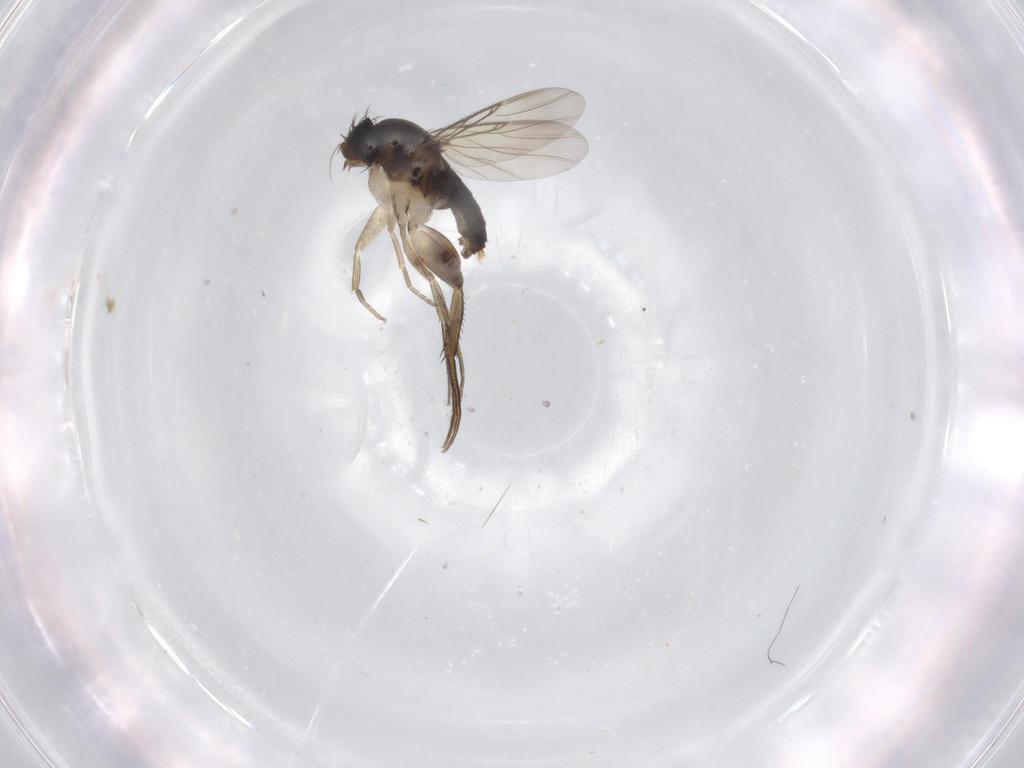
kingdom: Animalia
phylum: Arthropoda
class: Insecta
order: Diptera
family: Phoridae
